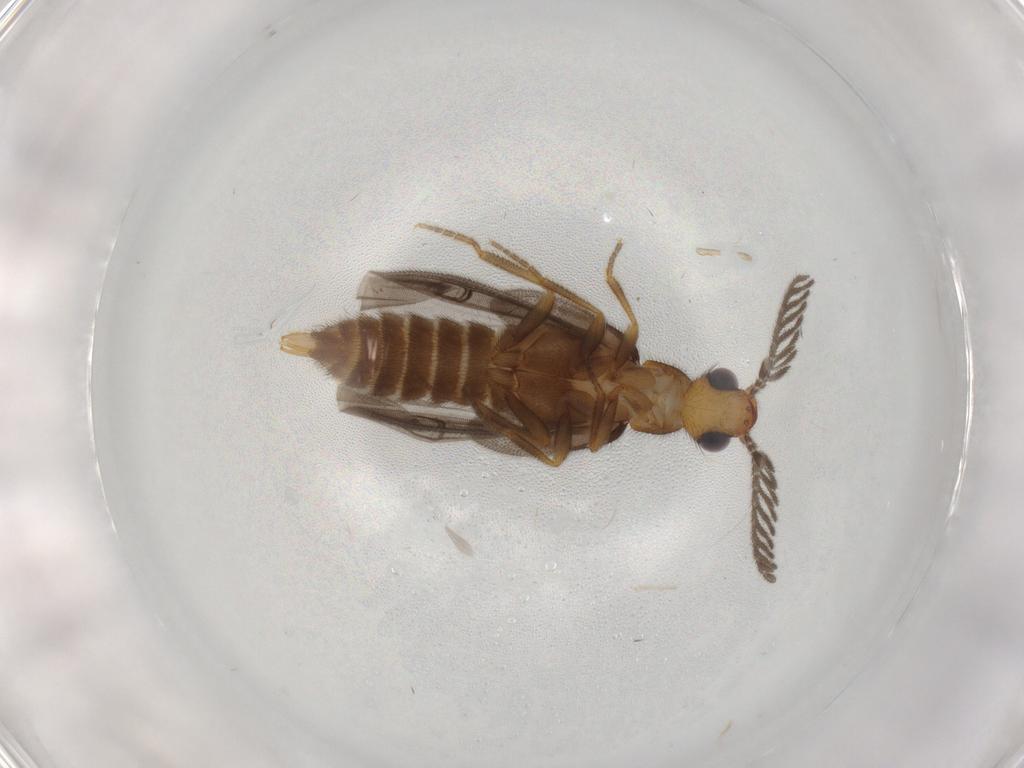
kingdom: Animalia
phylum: Arthropoda
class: Insecta
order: Coleoptera
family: Phengodidae
